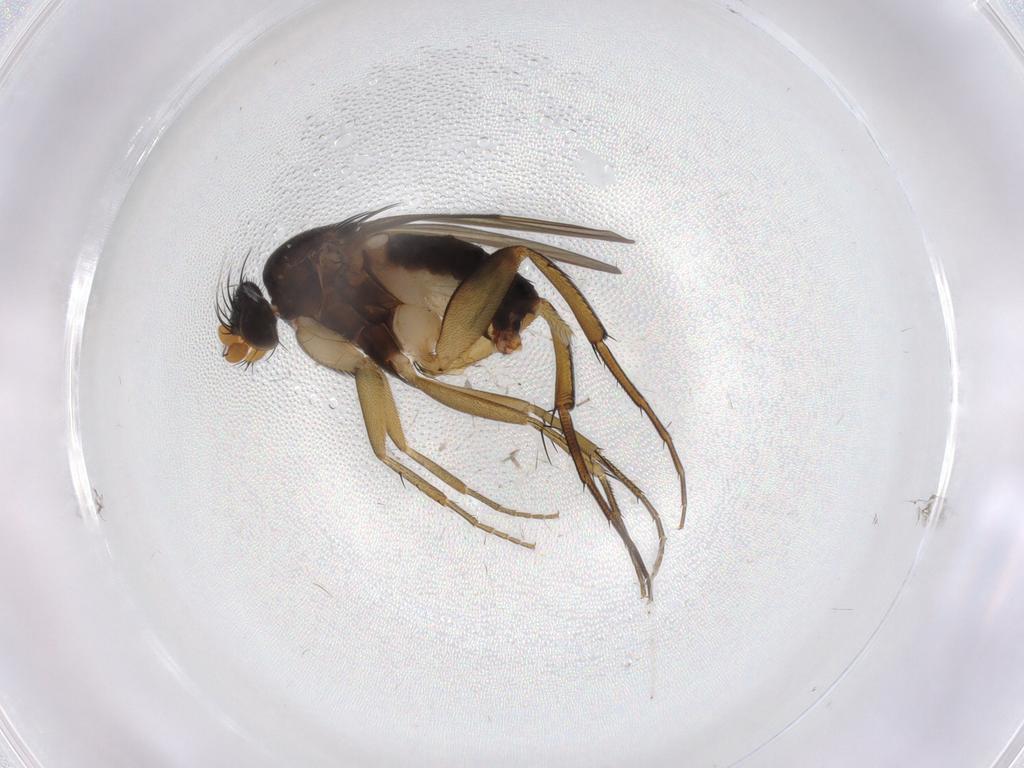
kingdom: Animalia
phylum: Arthropoda
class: Insecta
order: Diptera
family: Phoridae
